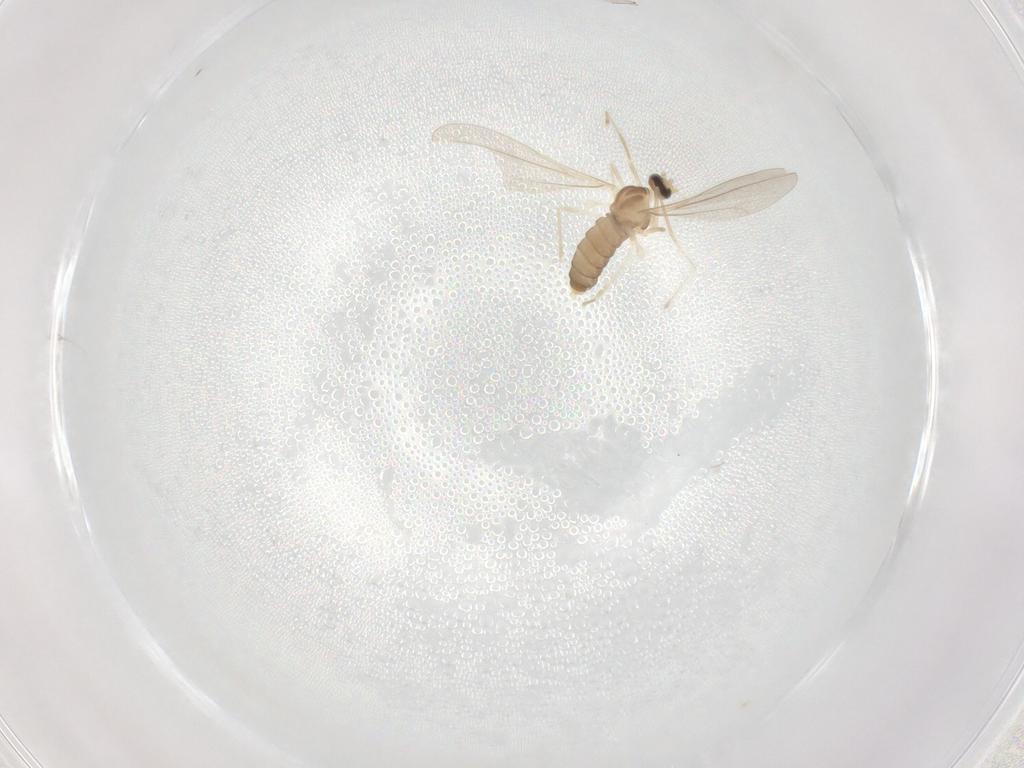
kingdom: Animalia
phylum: Arthropoda
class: Insecta
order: Diptera
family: Cecidomyiidae
